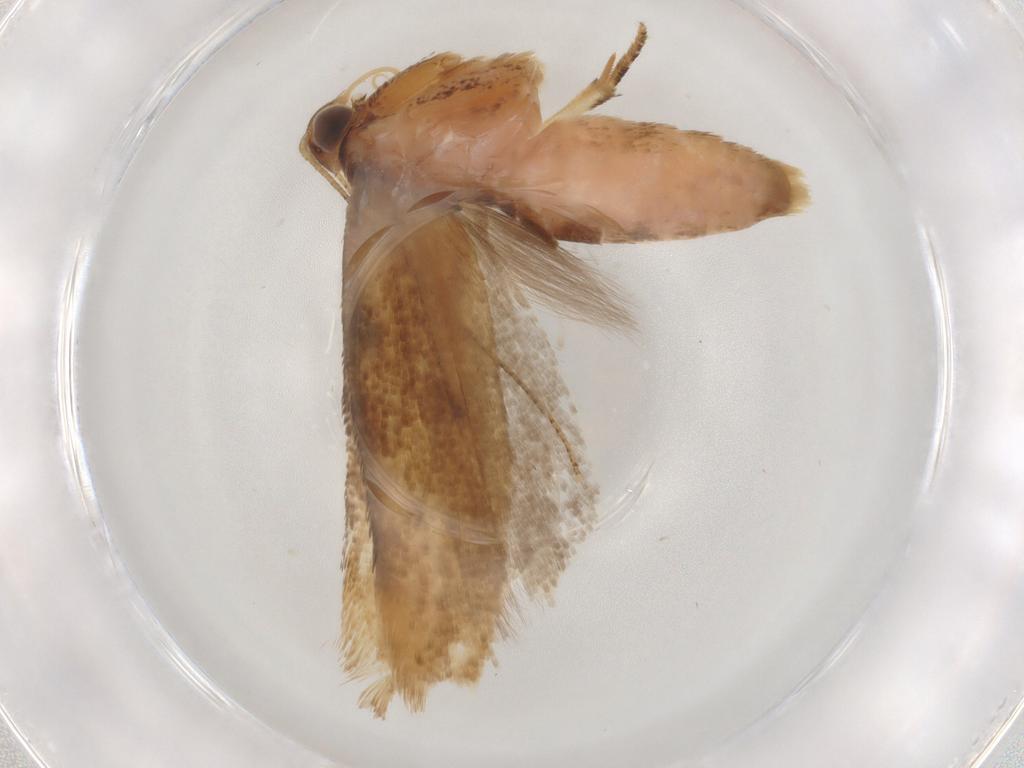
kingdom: Animalia
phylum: Arthropoda
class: Insecta
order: Lepidoptera
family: Gelechiidae
